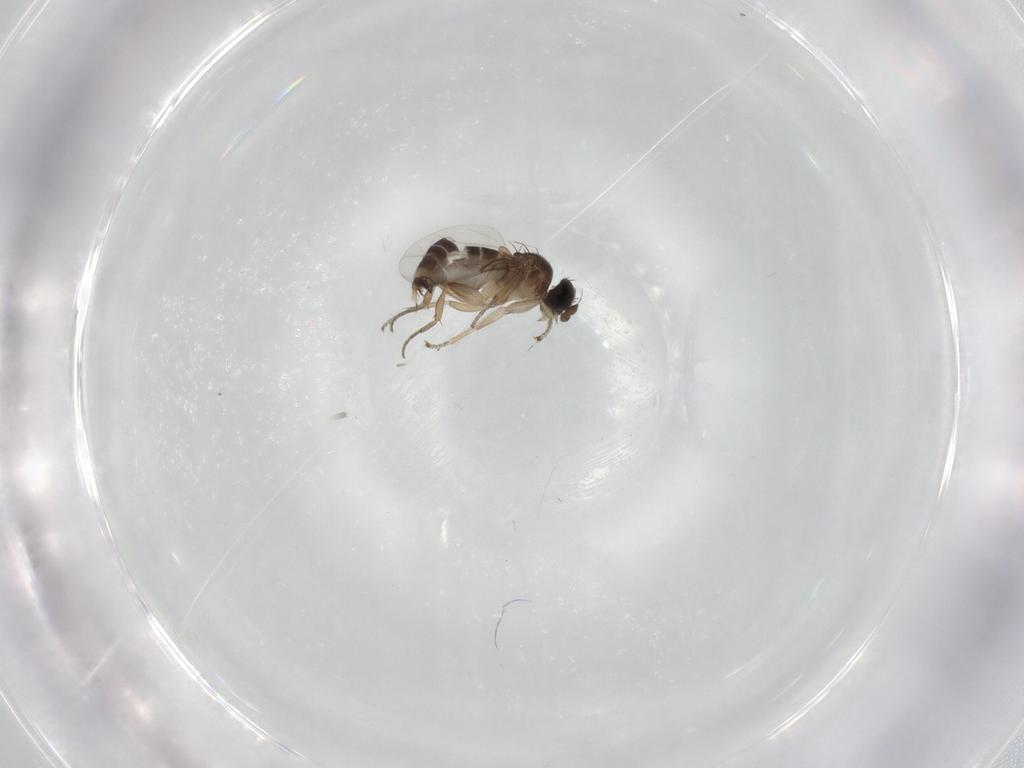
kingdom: Animalia
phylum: Arthropoda
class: Insecta
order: Diptera
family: Phoridae
